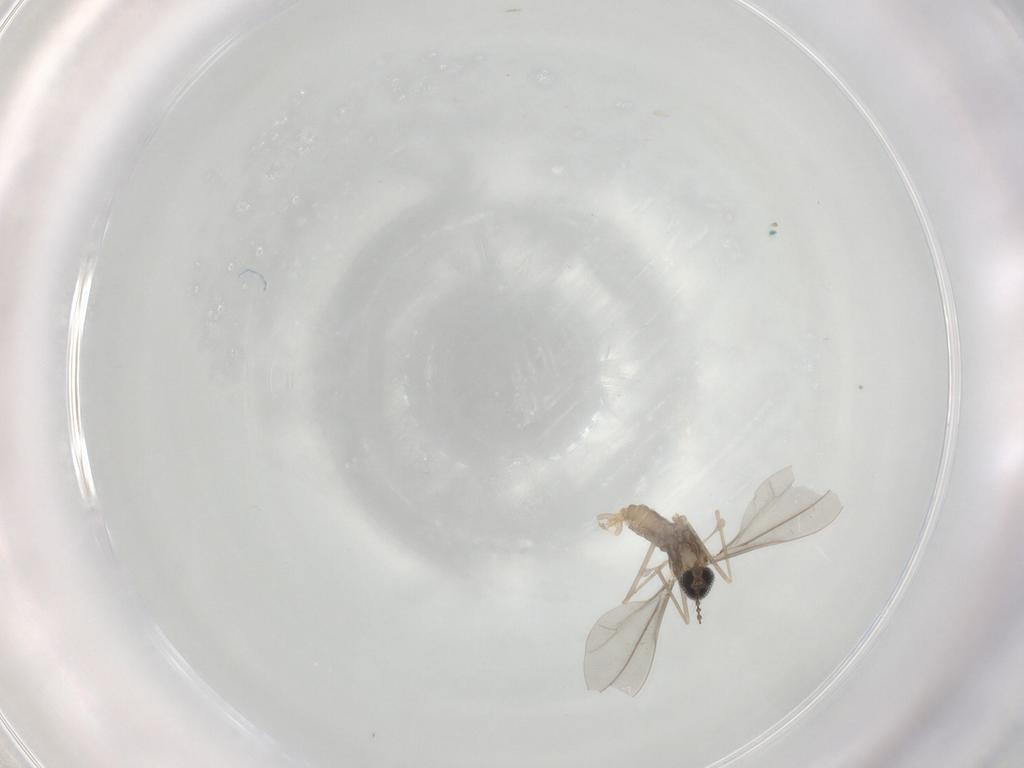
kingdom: Animalia
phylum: Arthropoda
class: Insecta
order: Diptera
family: Cecidomyiidae
